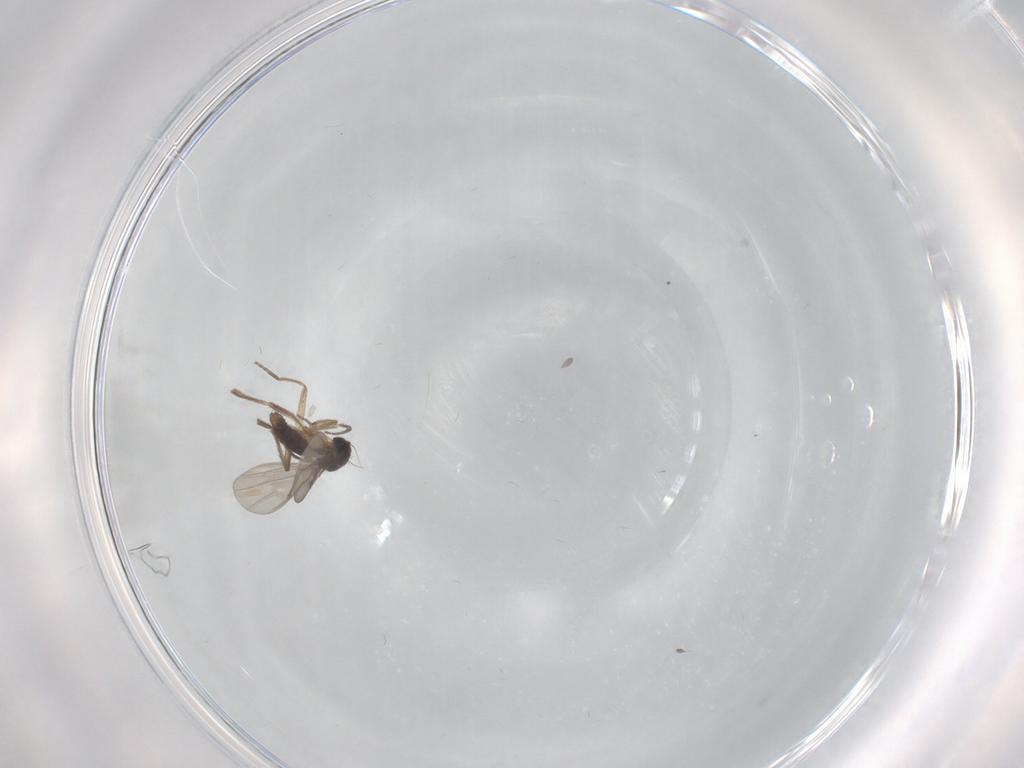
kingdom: Animalia
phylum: Arthropoda
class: Insecta
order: Diptera
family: Phoridae
